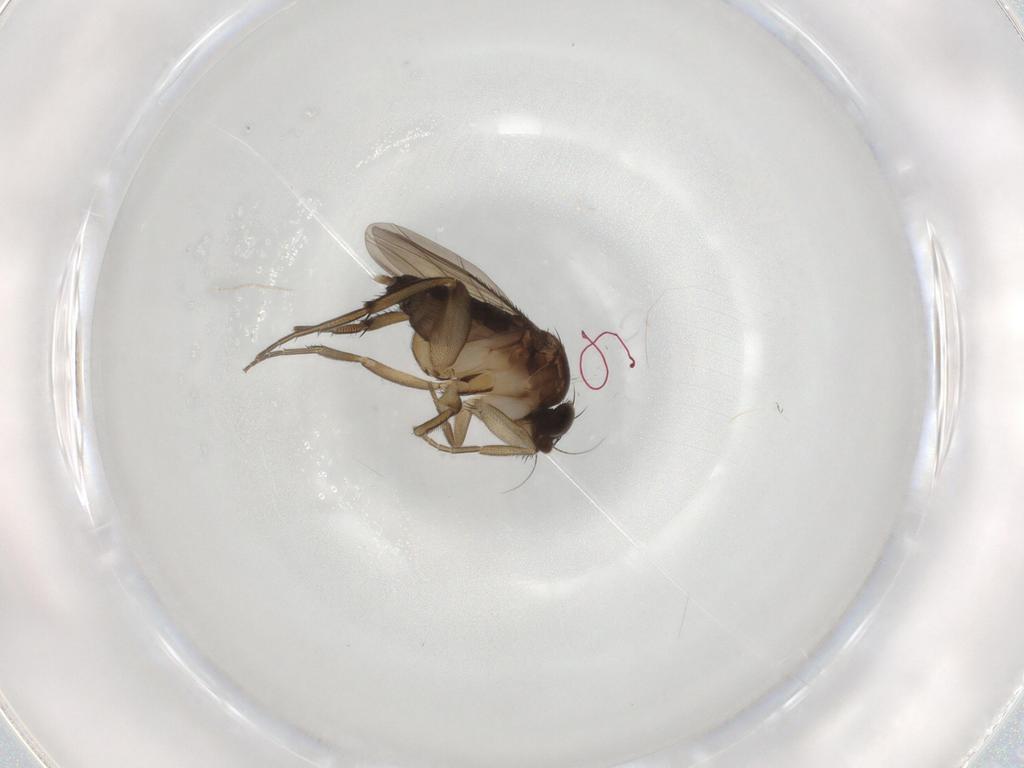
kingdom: Animalia
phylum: Arthropoda
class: Insecta
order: Diptera
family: Phoridae
